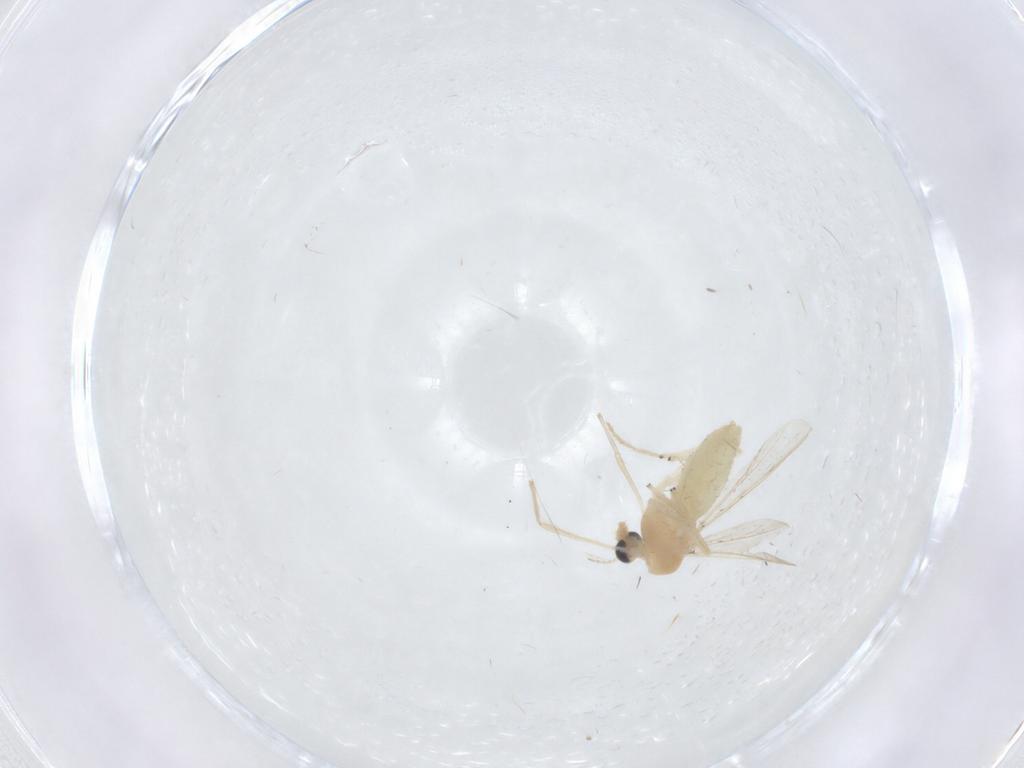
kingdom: Animalia
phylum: Arthropoda
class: Insecta
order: Diptera
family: Chironomidae
